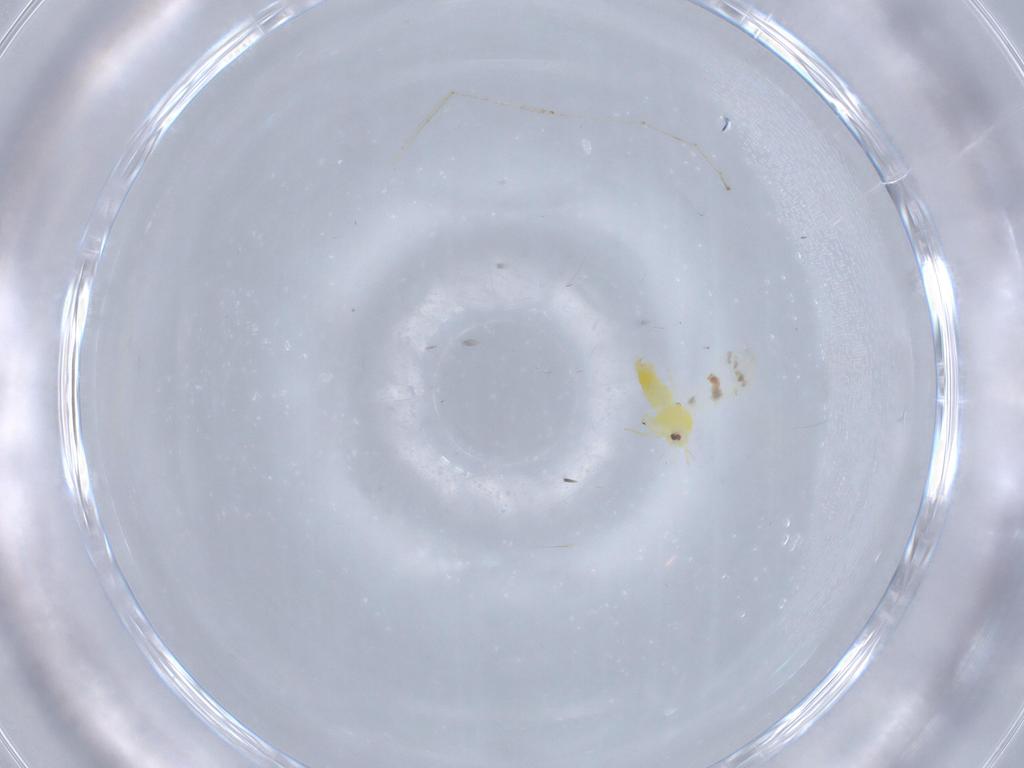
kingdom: Animalia
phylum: Arthropoda
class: Insecta
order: Hemiptera
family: Aleyrodidae
